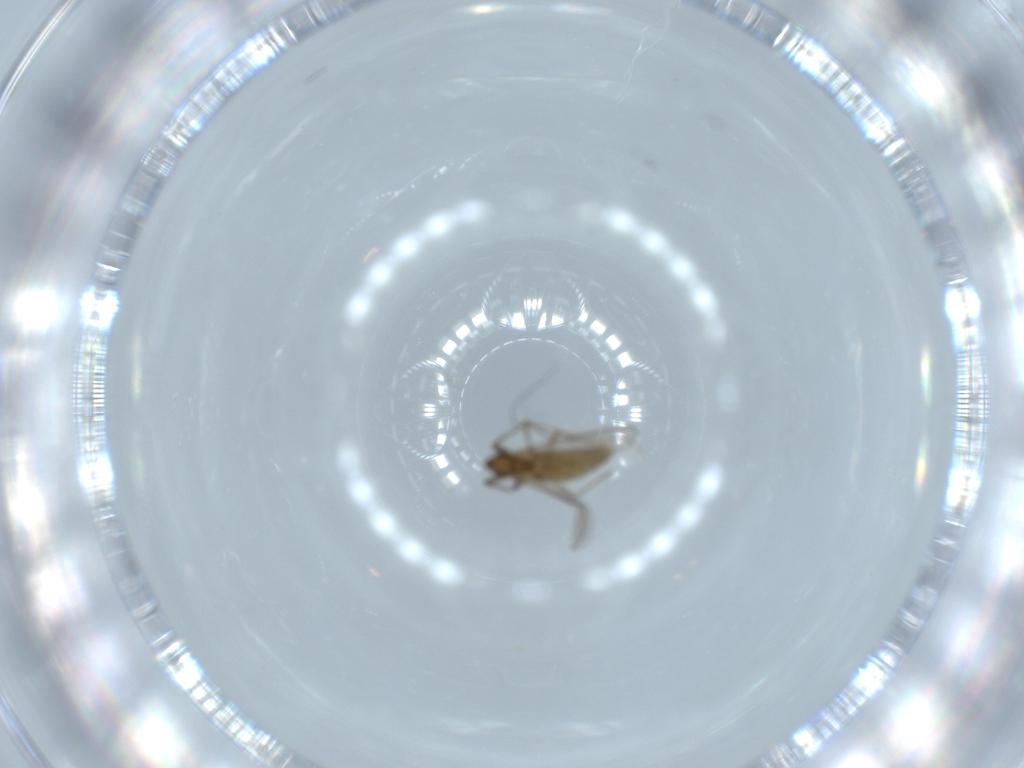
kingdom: Animalia
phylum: Arthropoda
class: Insecta
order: Diptera
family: Chironomidae
